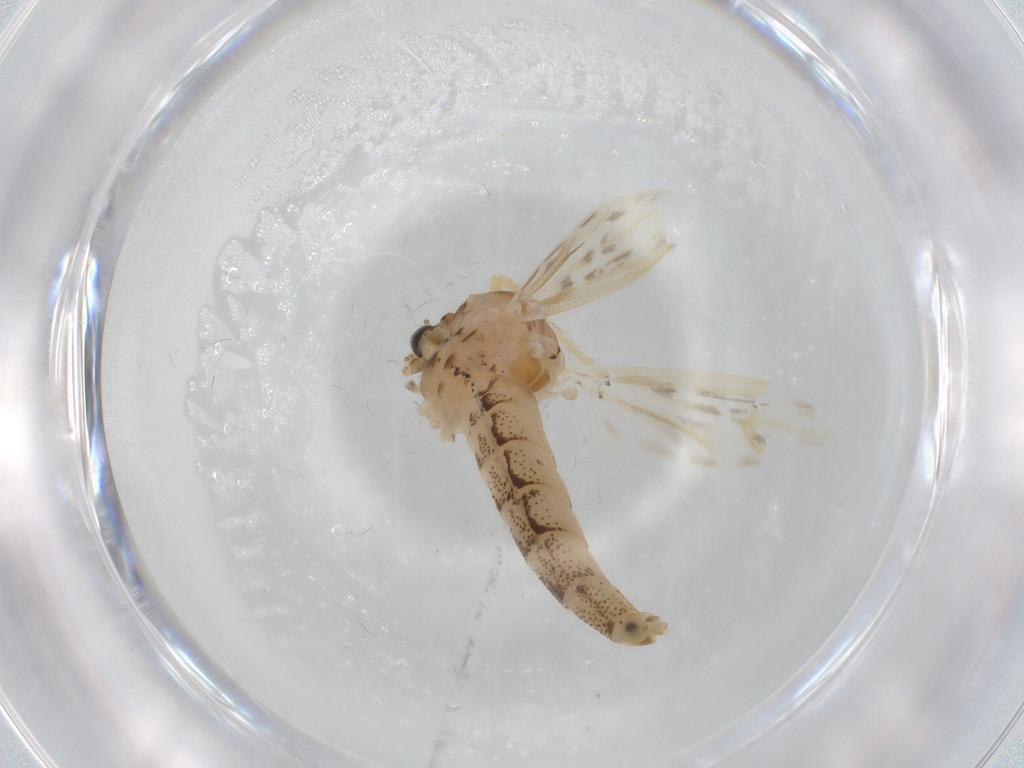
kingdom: Animalia
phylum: Arthropoda
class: Insecta
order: Diptera
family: Chaoboridae
